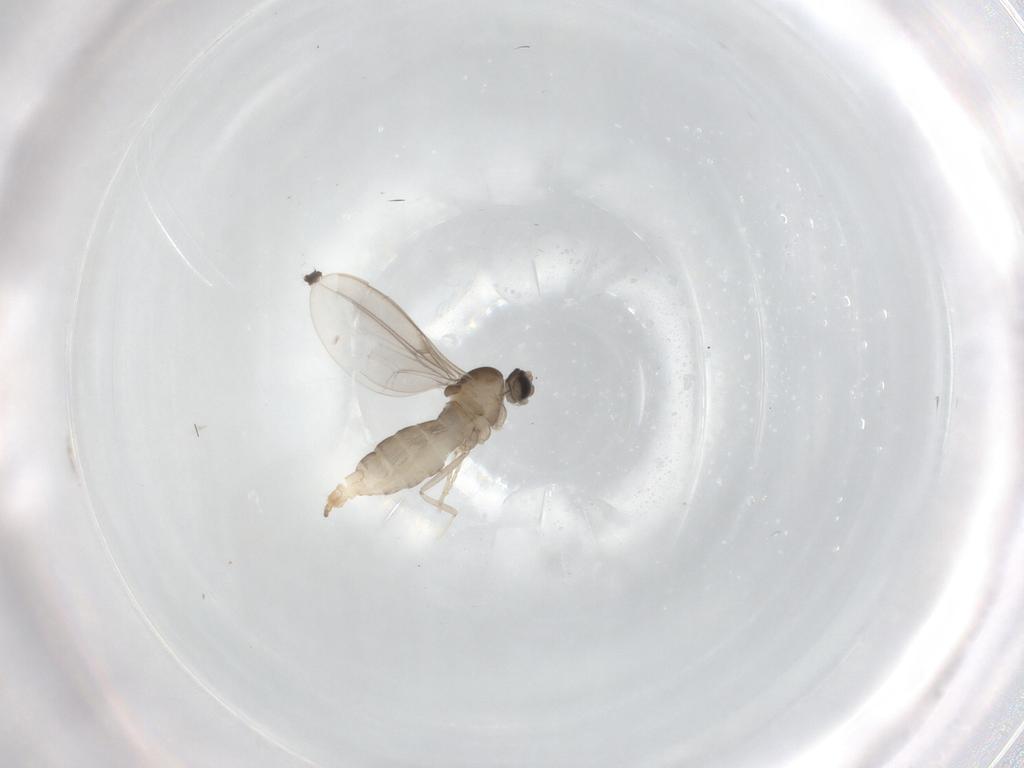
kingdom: Animalia
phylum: Arthropoda
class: Insecta
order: Diptera
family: Cecidomyiidae
